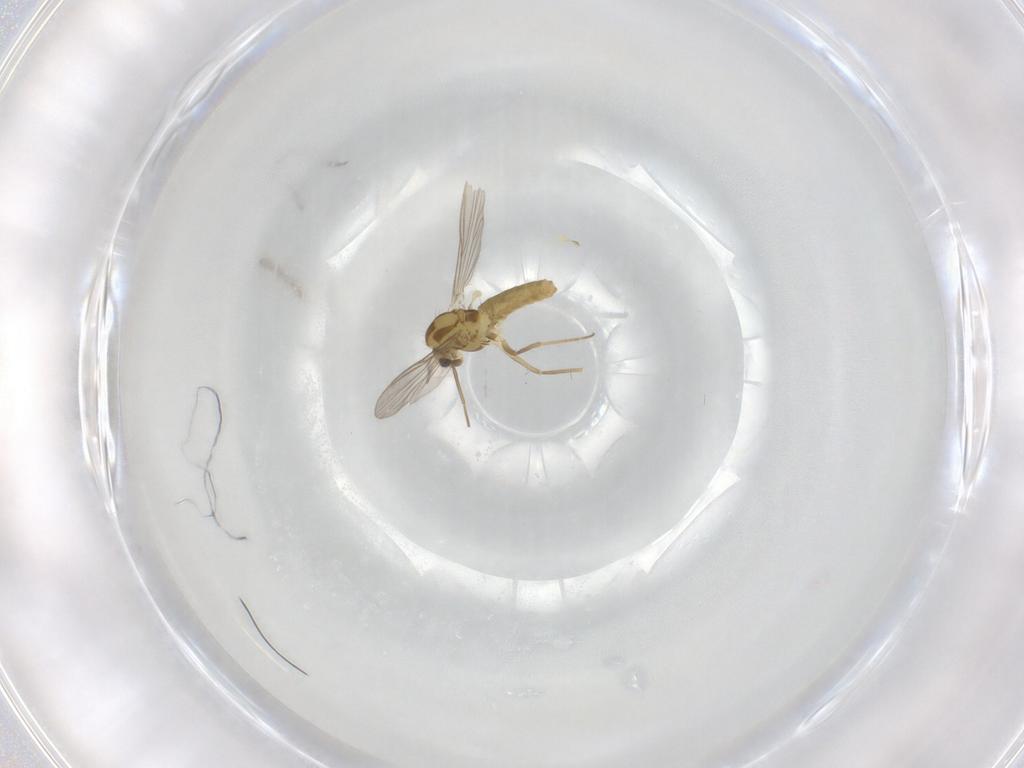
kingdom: Animalia
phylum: Arthropoda
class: Insecta
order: Diptera
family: Chironomidae
